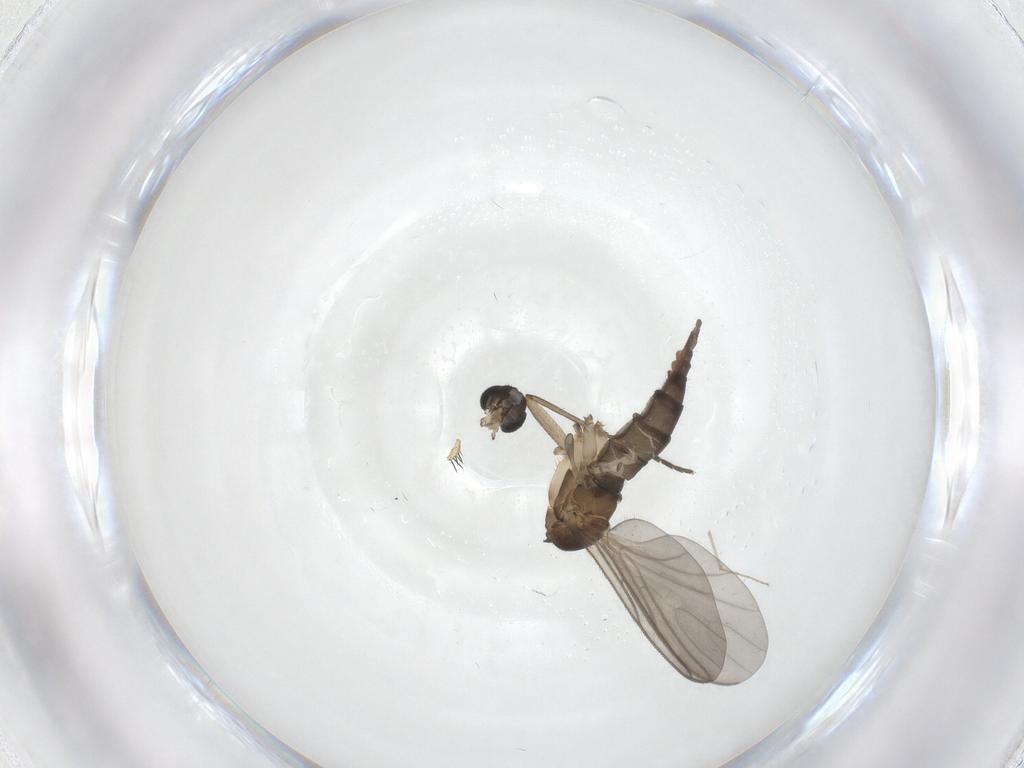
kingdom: Animalia
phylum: Arthropoda
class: Insecta
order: Diptera
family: Sciaridae
